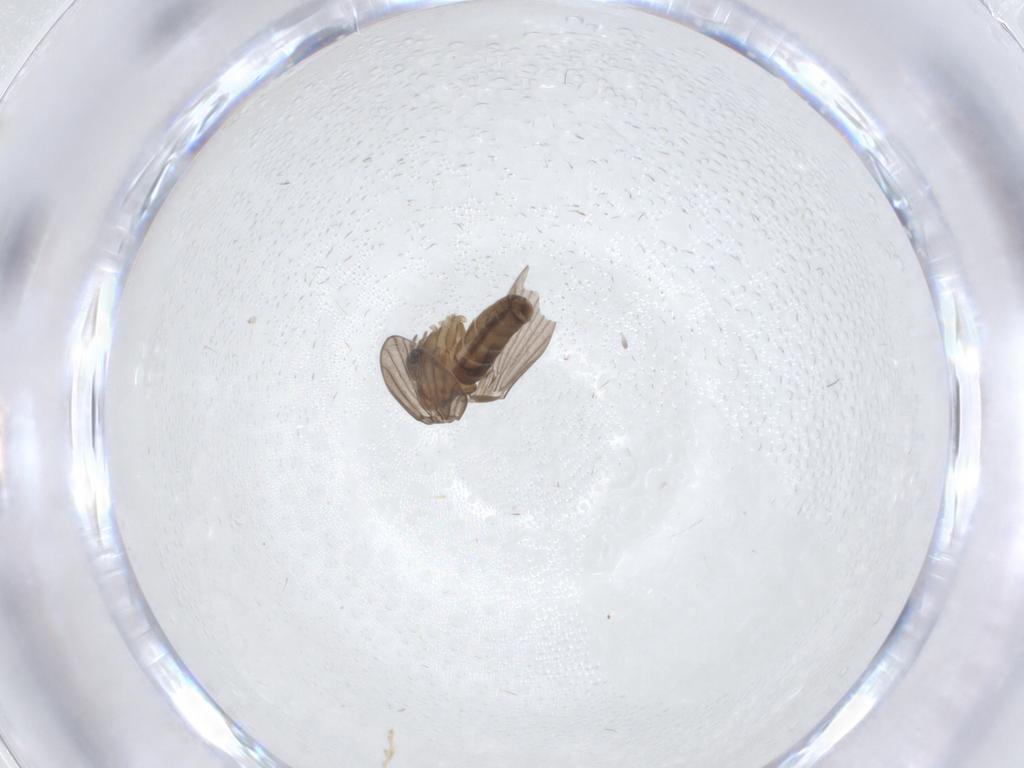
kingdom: Animalia
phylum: Arthropoda
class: Insecta
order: Diptera
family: Cecidomyiidae
